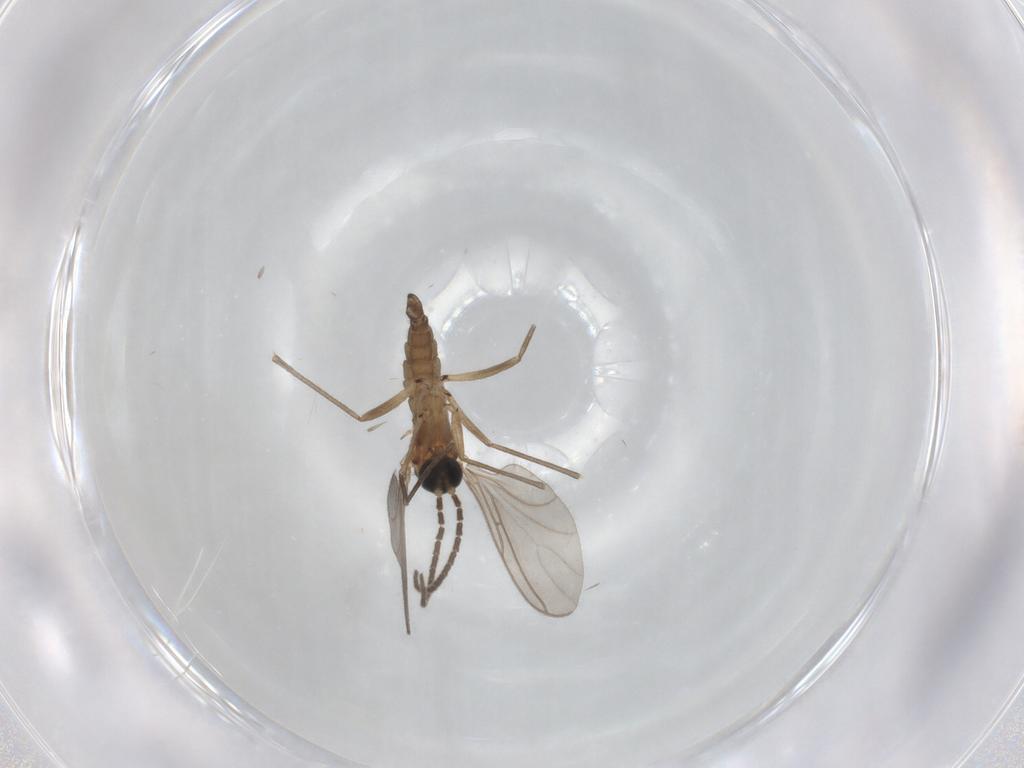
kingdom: Animalia
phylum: Arthropoda
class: Insecta
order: Diptera
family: Sciaridae
